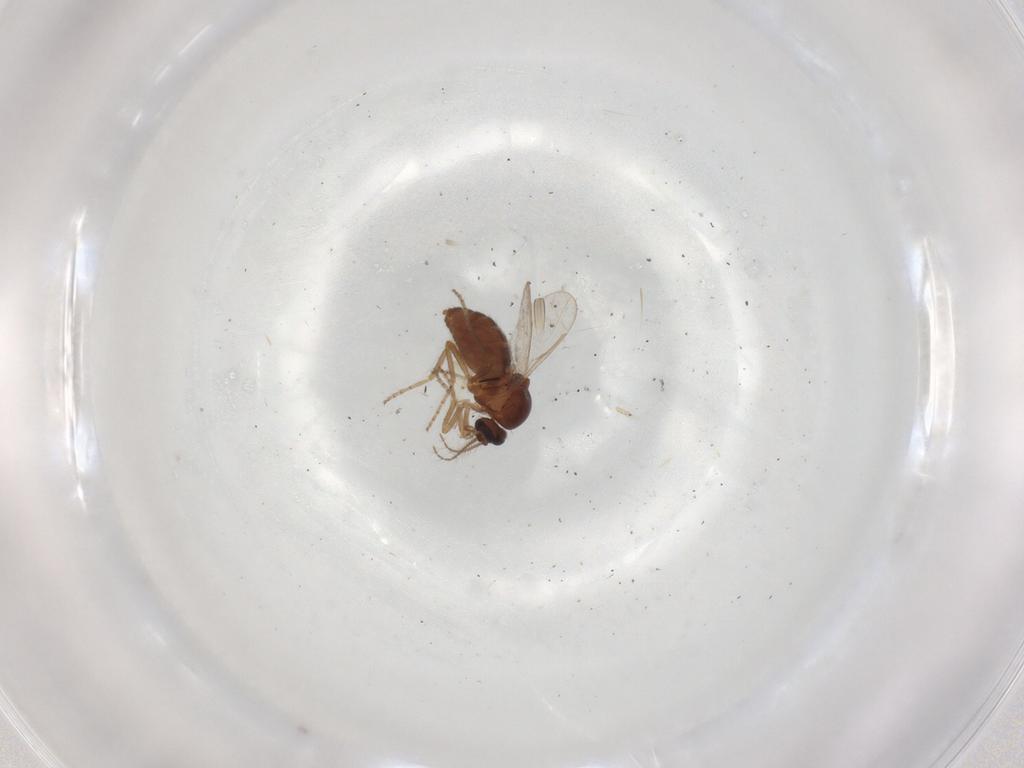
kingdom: Animalia
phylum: Arthropoda
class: Insecta
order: Diptera
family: Ceratopogonidae
